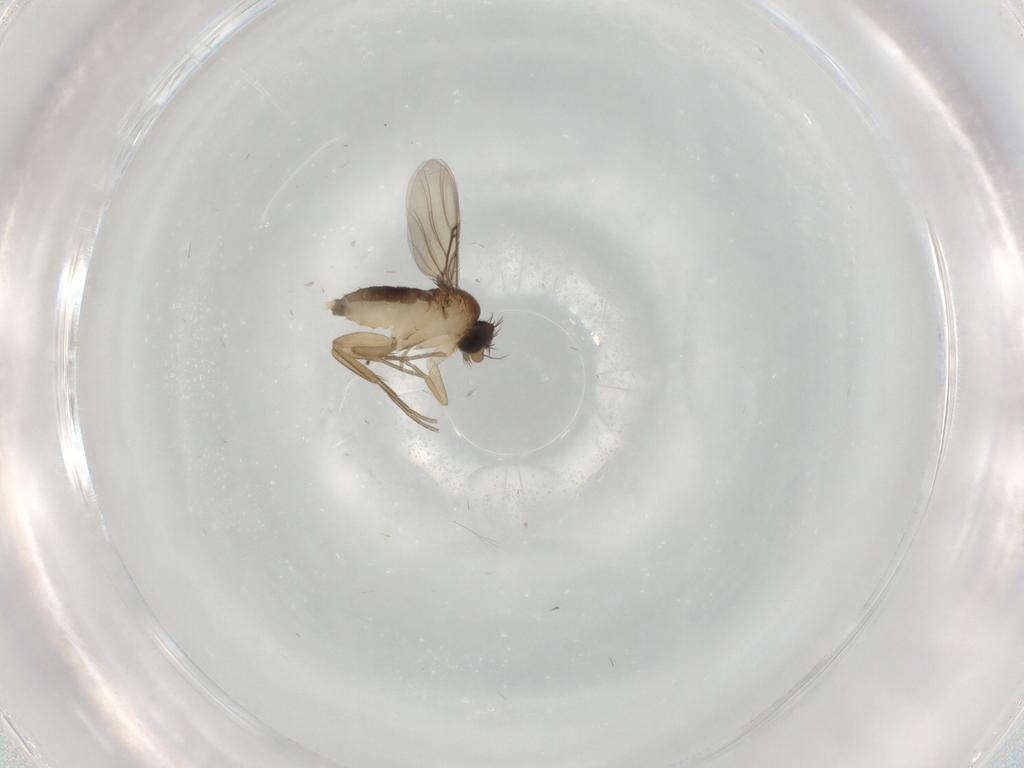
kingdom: Animalia
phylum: Arthropoda
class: Insecta
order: Diptera
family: Phoridae
